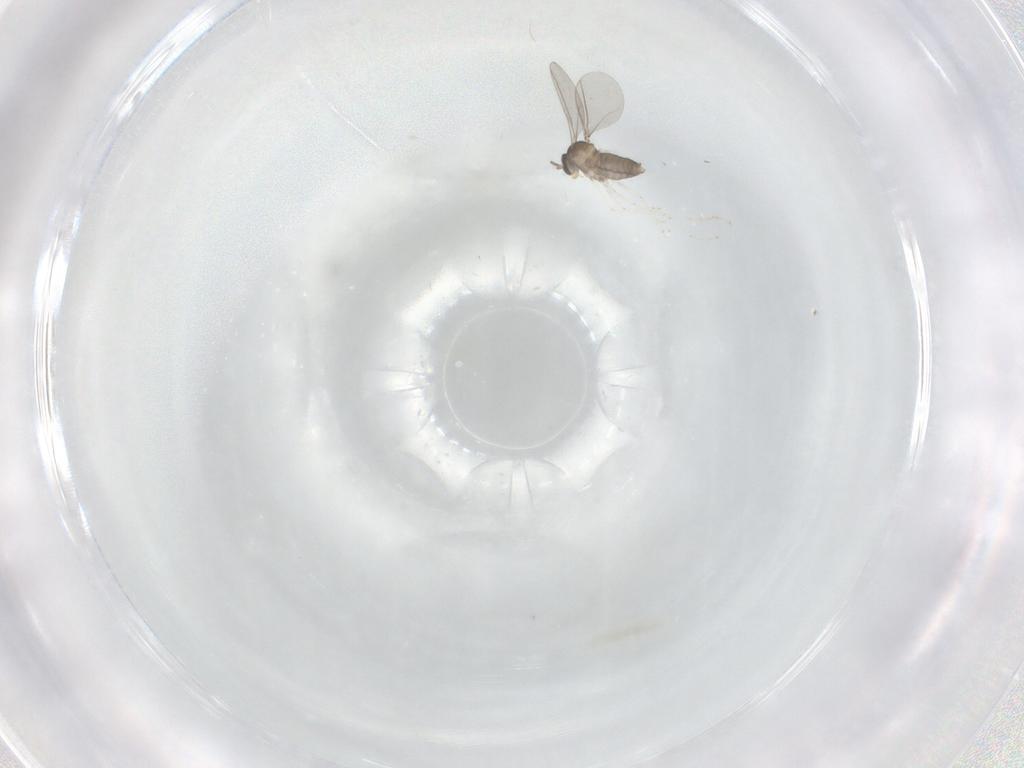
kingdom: Animalia
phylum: Arthropoda
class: Insecta
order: Diptera
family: Cecidomyiidae
